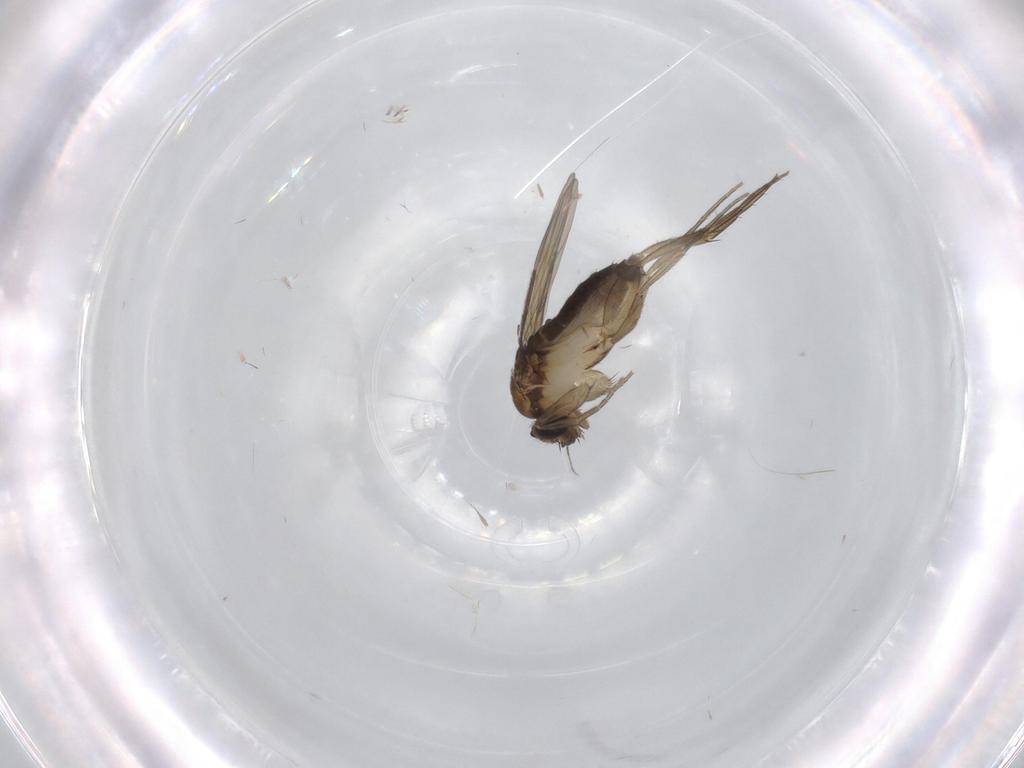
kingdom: Animalia
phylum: Arthropoda
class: Insecta
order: Diptera
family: Phoridae
